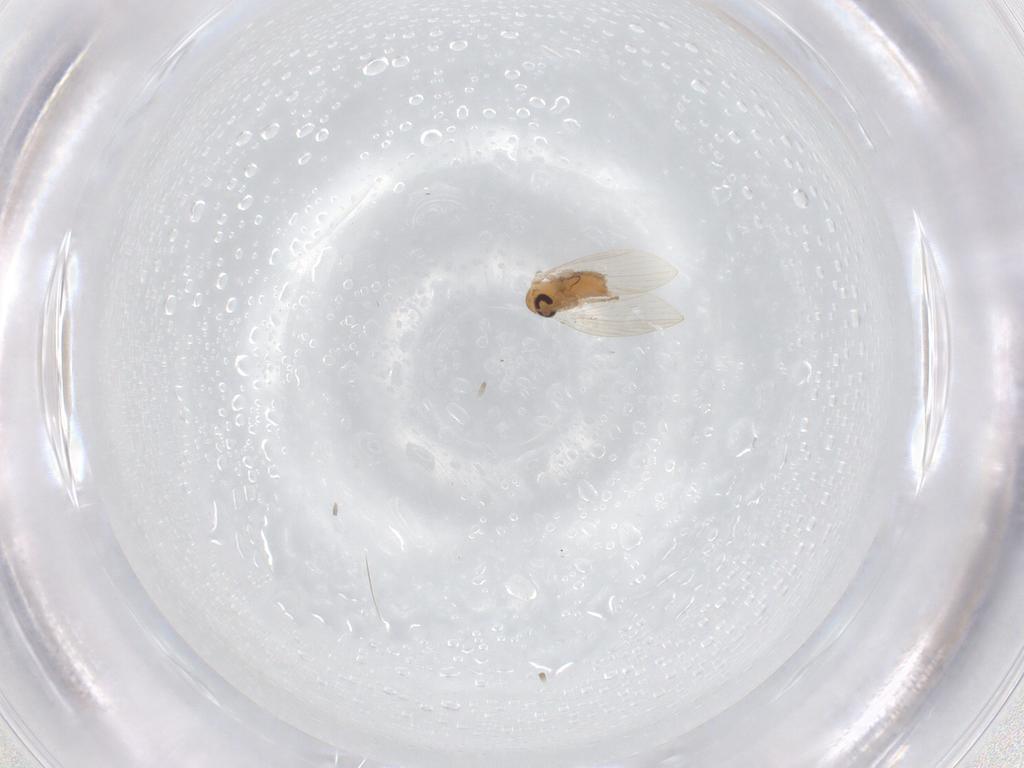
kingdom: Animalia
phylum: Arthropoda
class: Insecta
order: Diptera
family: Psychodidae
